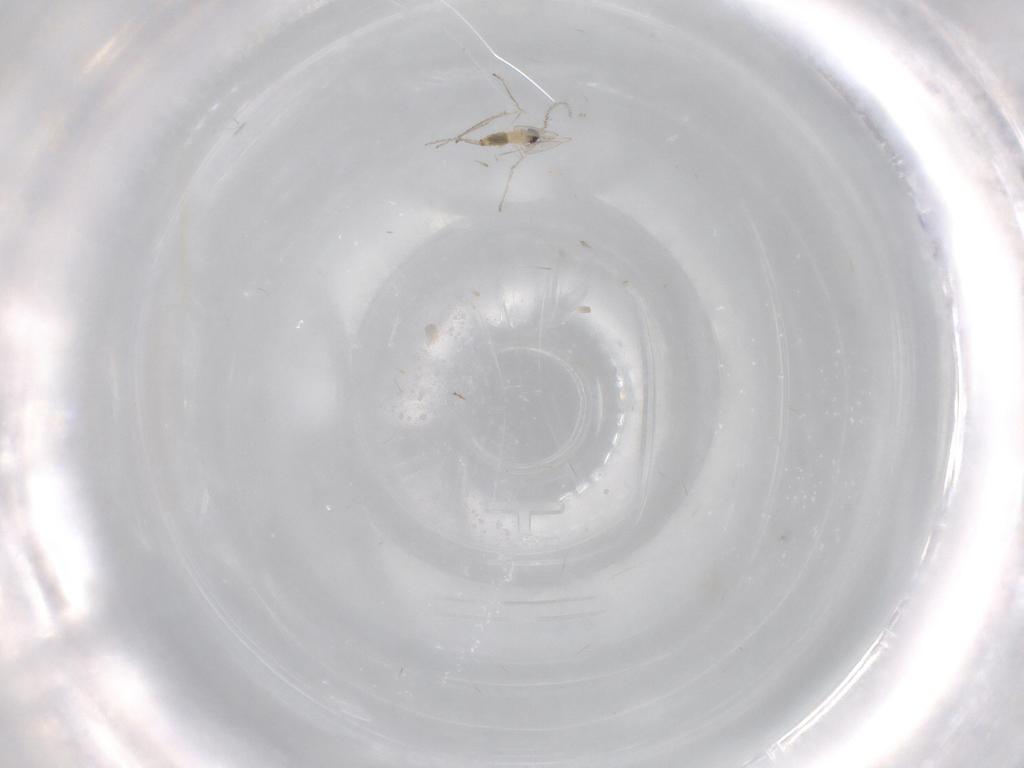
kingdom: Animalia
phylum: Arthropoda
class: Insecta
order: Diptera
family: Cecidomyiidae
